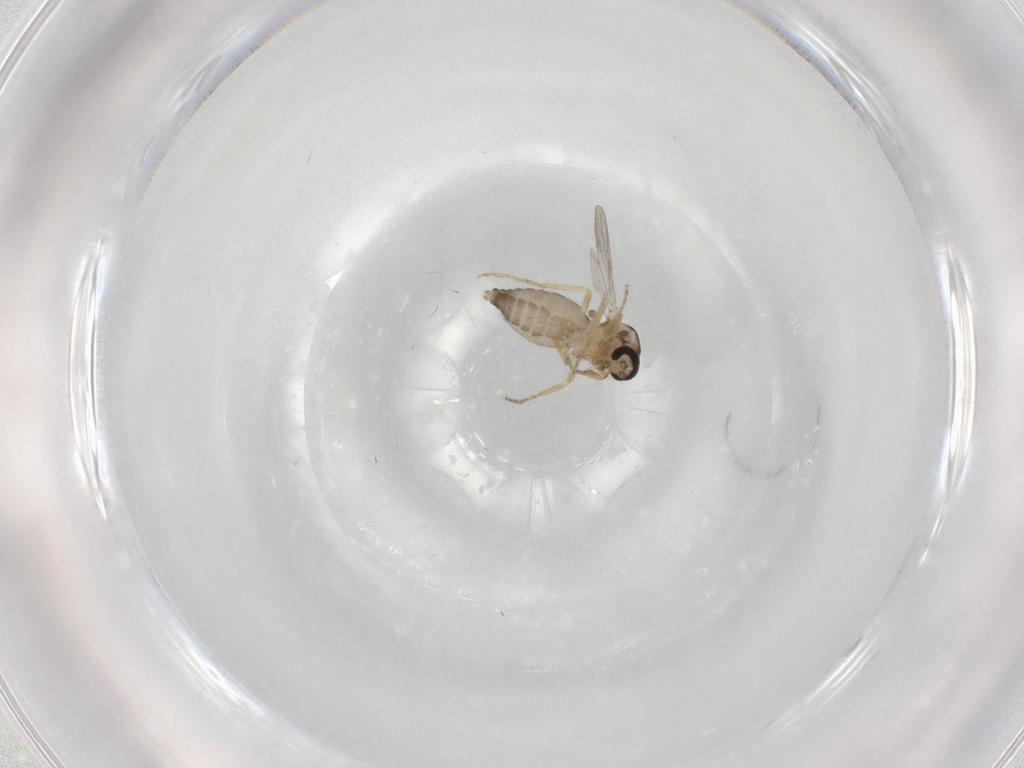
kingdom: Animalia
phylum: Arthropoda
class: Insecta
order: Diptera
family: Ceratopogonidae
